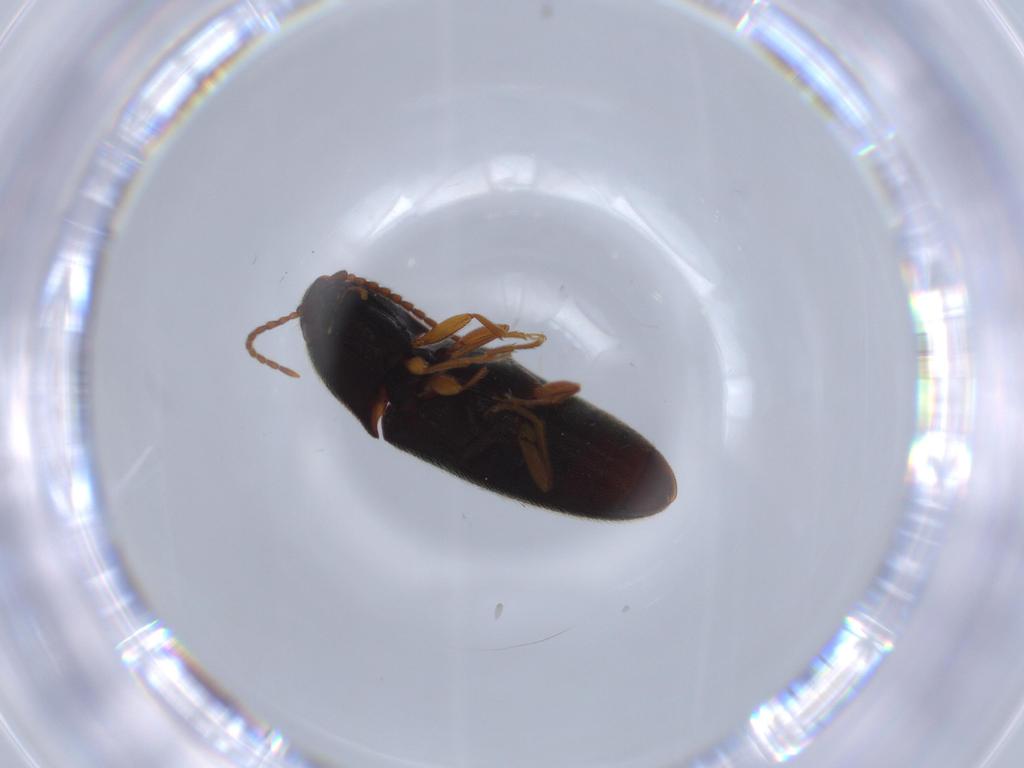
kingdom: Animalia
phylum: Arthropoda
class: Insecta
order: Coleoptera
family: Elateridae
